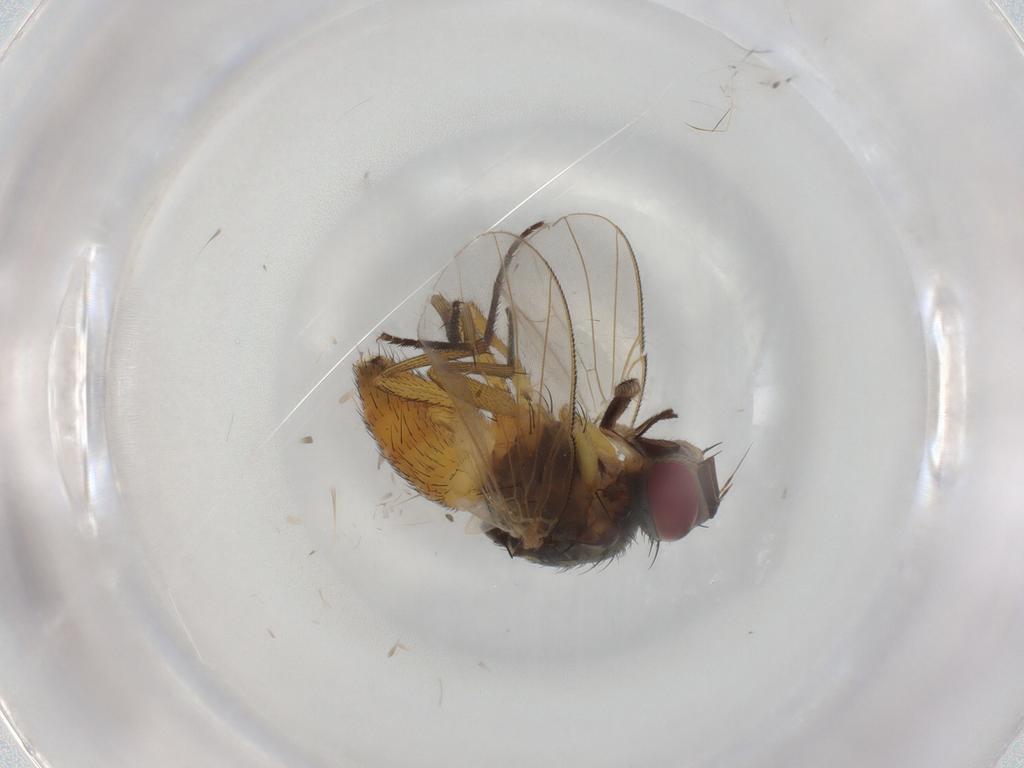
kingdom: Animalia
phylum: Arthropoda
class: Insecta
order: Diptera
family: Muscidae
